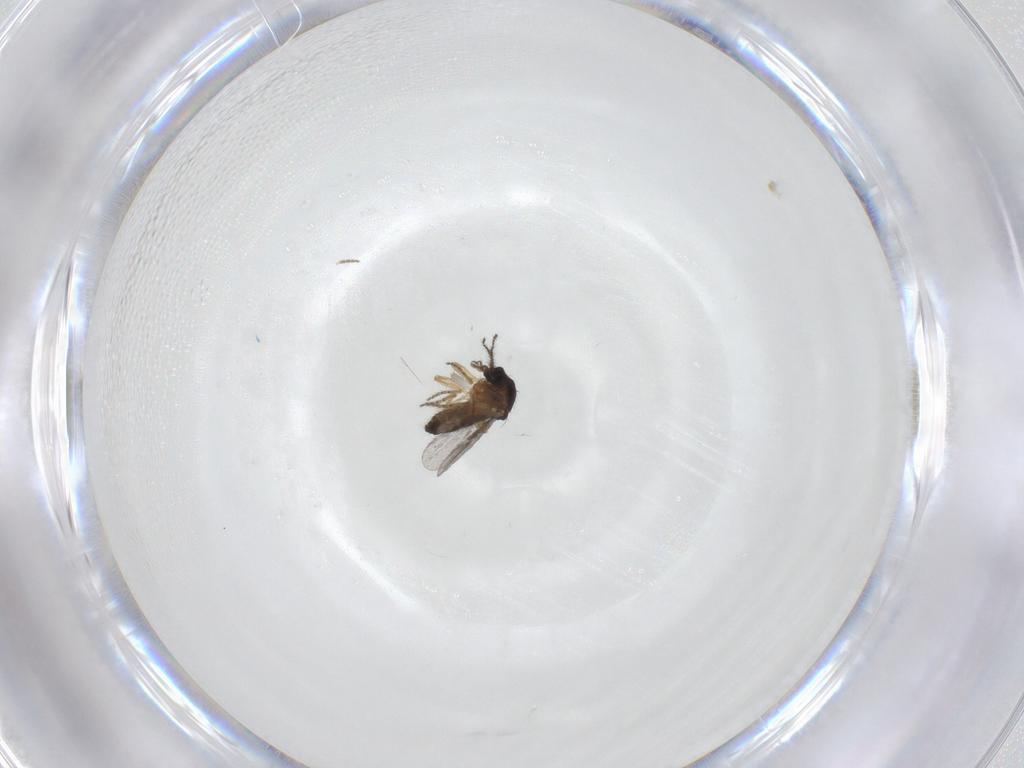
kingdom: Animalia
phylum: Arthropoda
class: Insecta
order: Diptera
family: Ceratopogonidae
